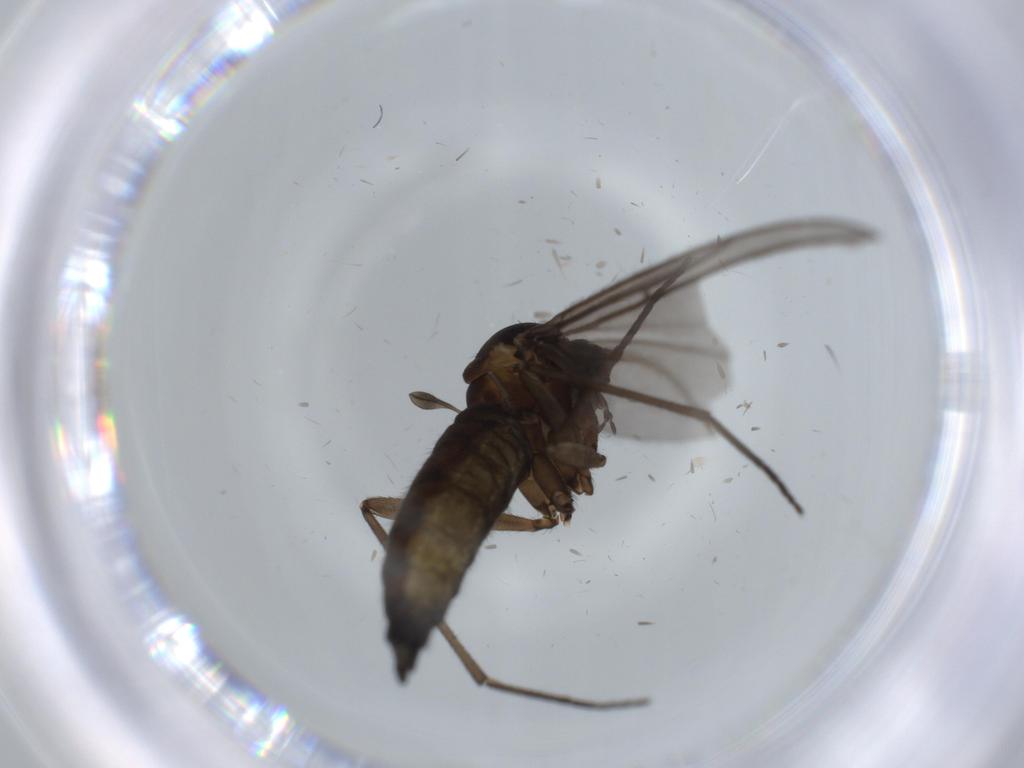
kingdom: Animalia
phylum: Arthropoda
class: Insecta
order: Diptera
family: Sciaridae
